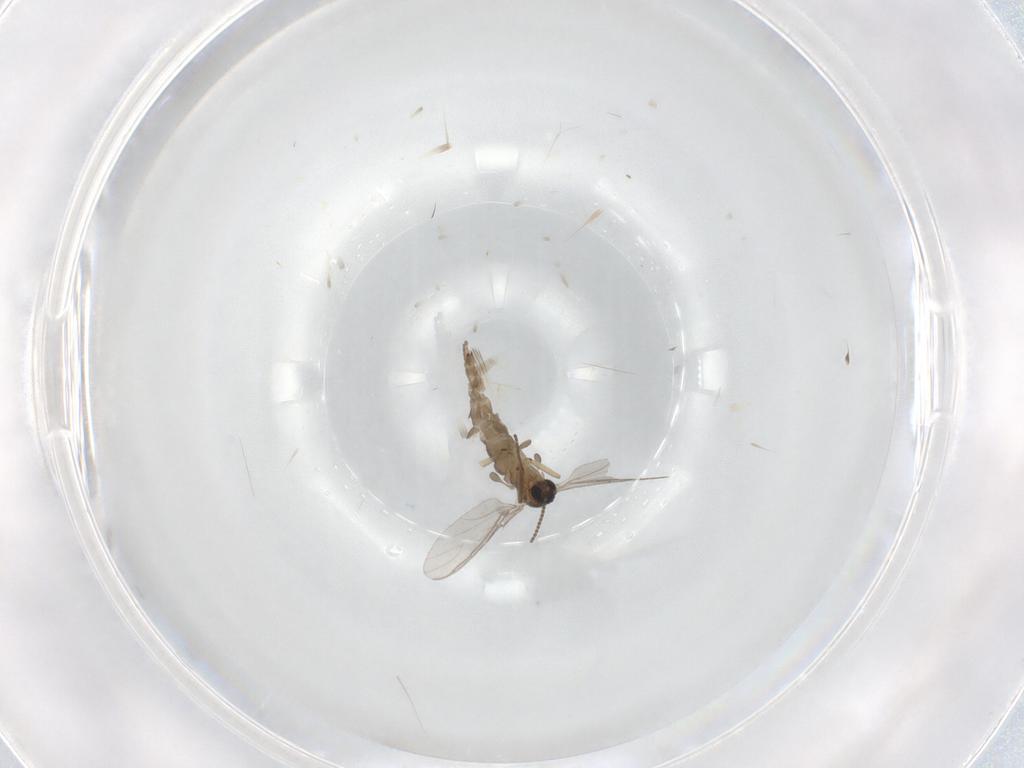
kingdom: Animalia
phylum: Arthropoda
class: Insecta
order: Diptera
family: Sciaridae
